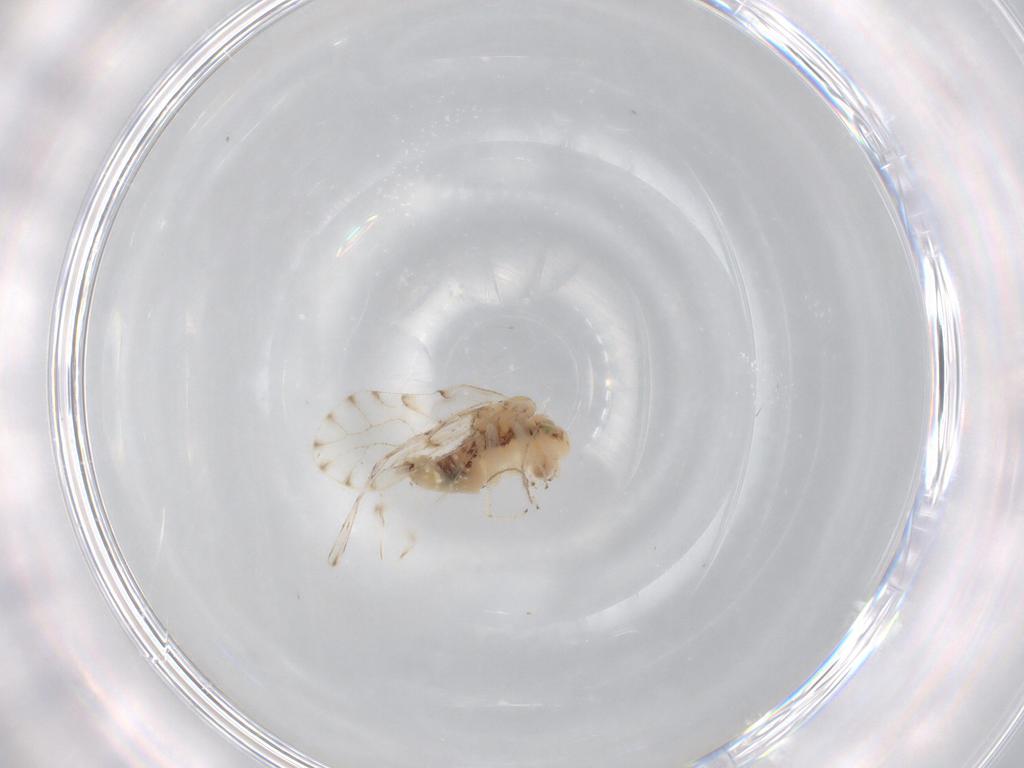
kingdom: Animalia
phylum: Arthropoda
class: Insecta
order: Psocodea
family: Ectopsocidae
